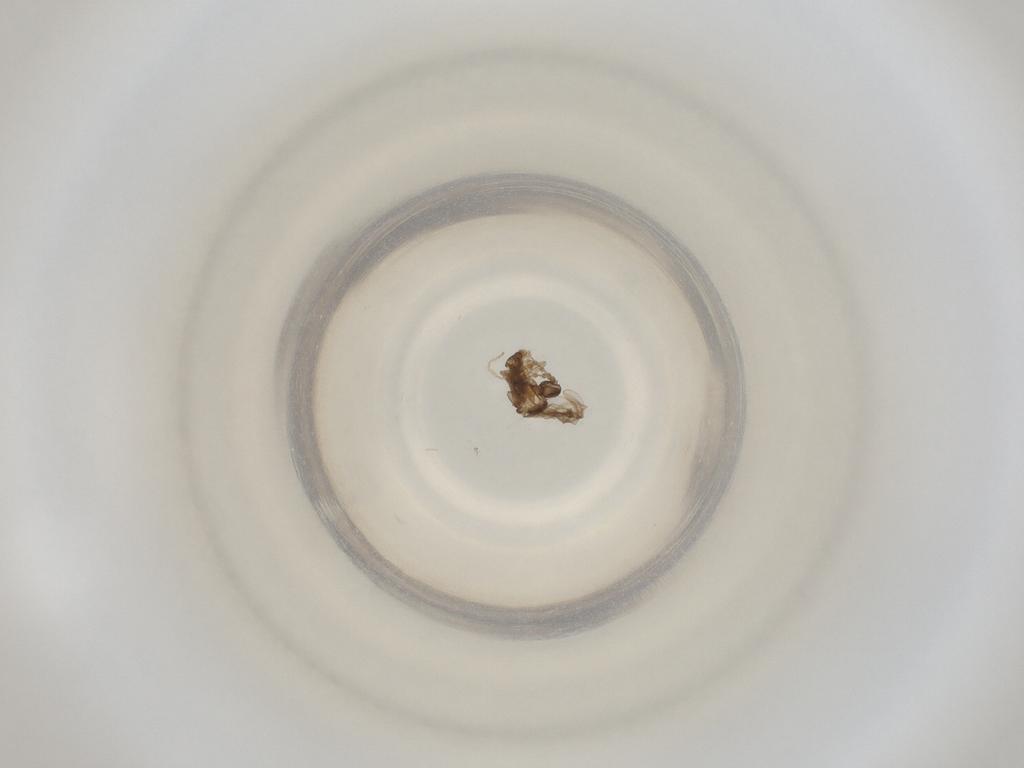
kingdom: Animalia
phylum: Arthropoda
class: Insecta
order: Diptera
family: Cecidomyiidae
